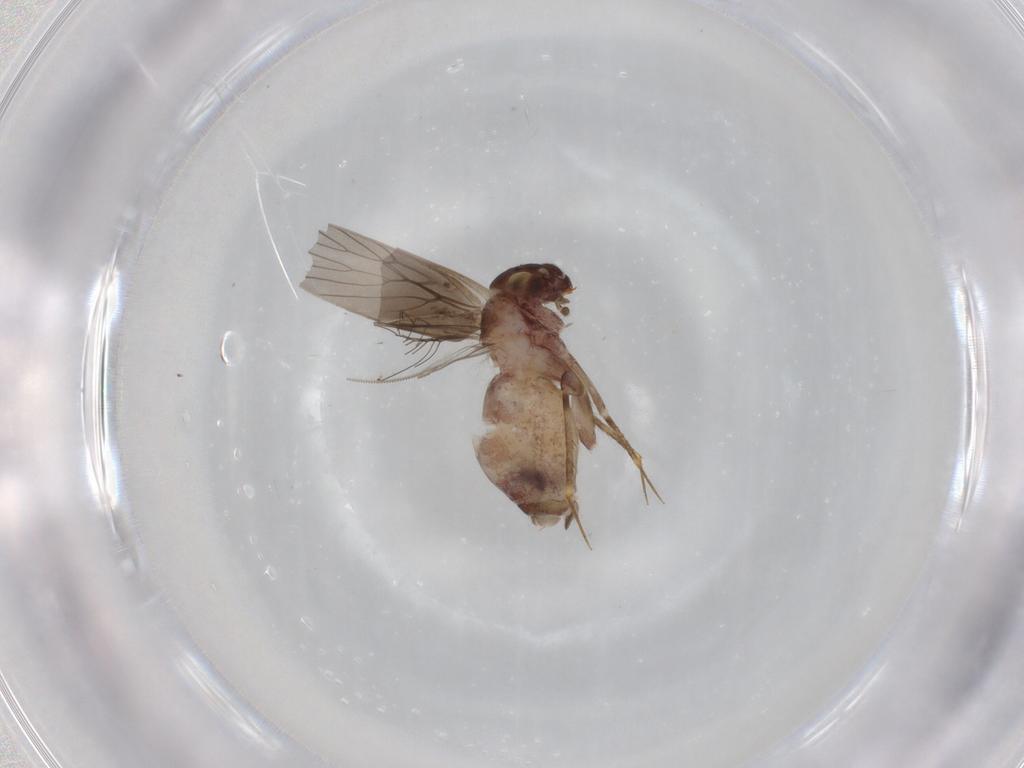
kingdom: Animalia
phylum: Arthropoda
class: Insecta
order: Psocodea
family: Lepidopsocidae
